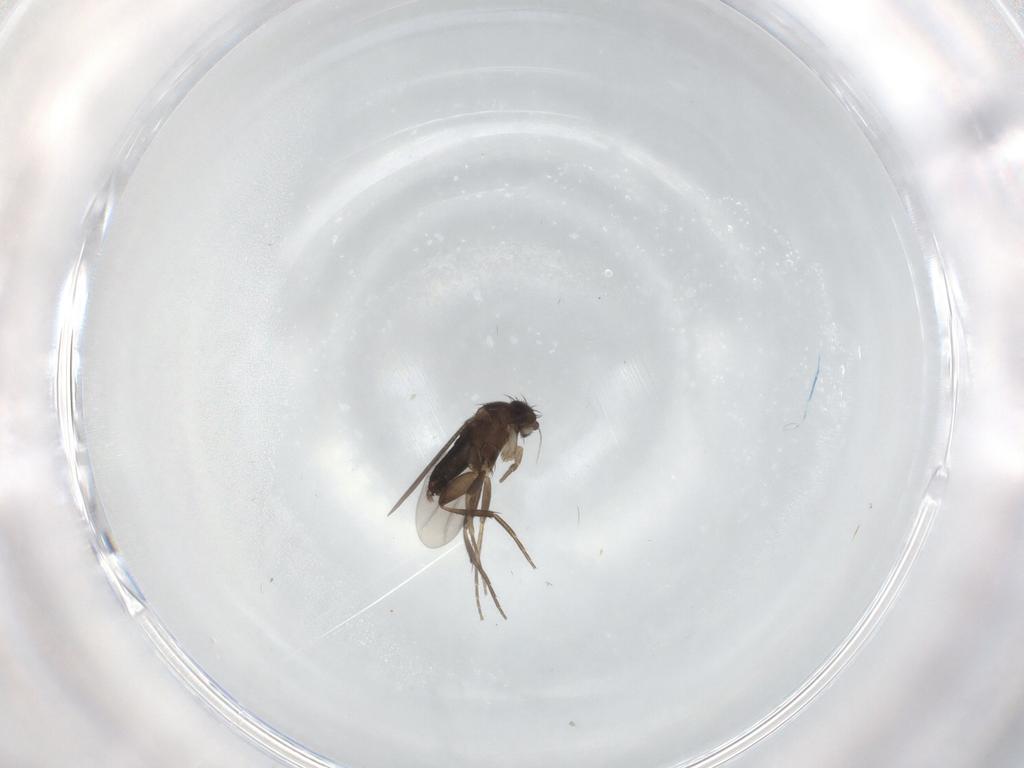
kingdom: Animalia
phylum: Arthropoda
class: Insecta
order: Diptera
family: Phoridae
